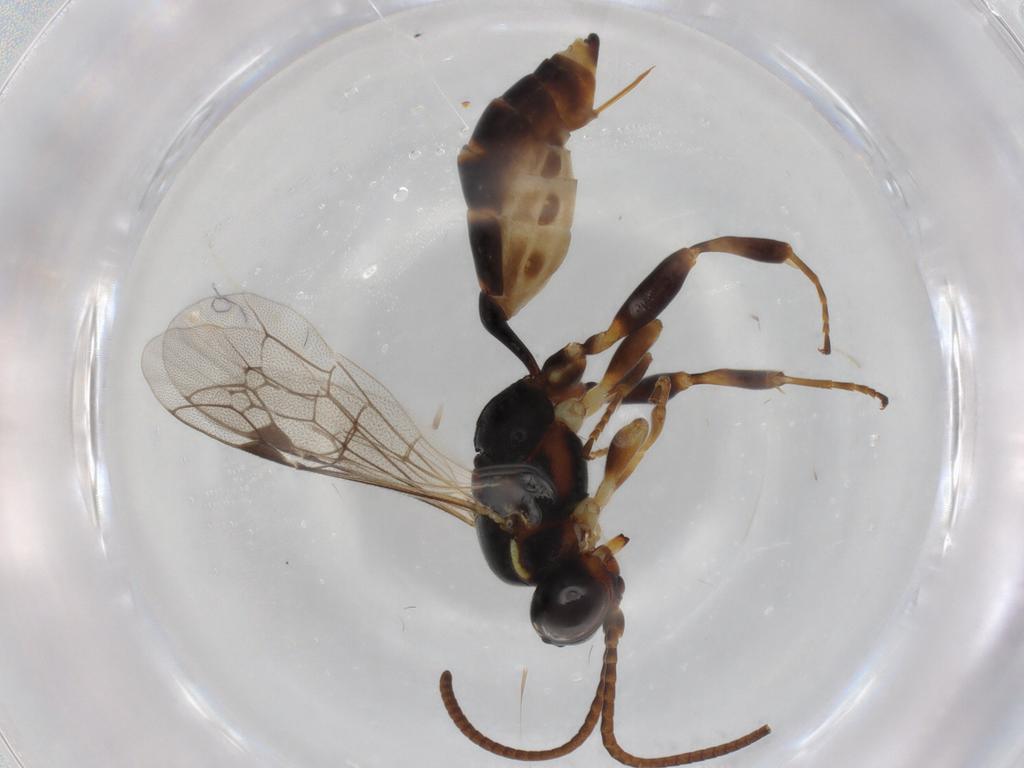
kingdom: Animalia
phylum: Arthropoda
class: Insecta
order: Hymenoptera
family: Ichneumonidae
